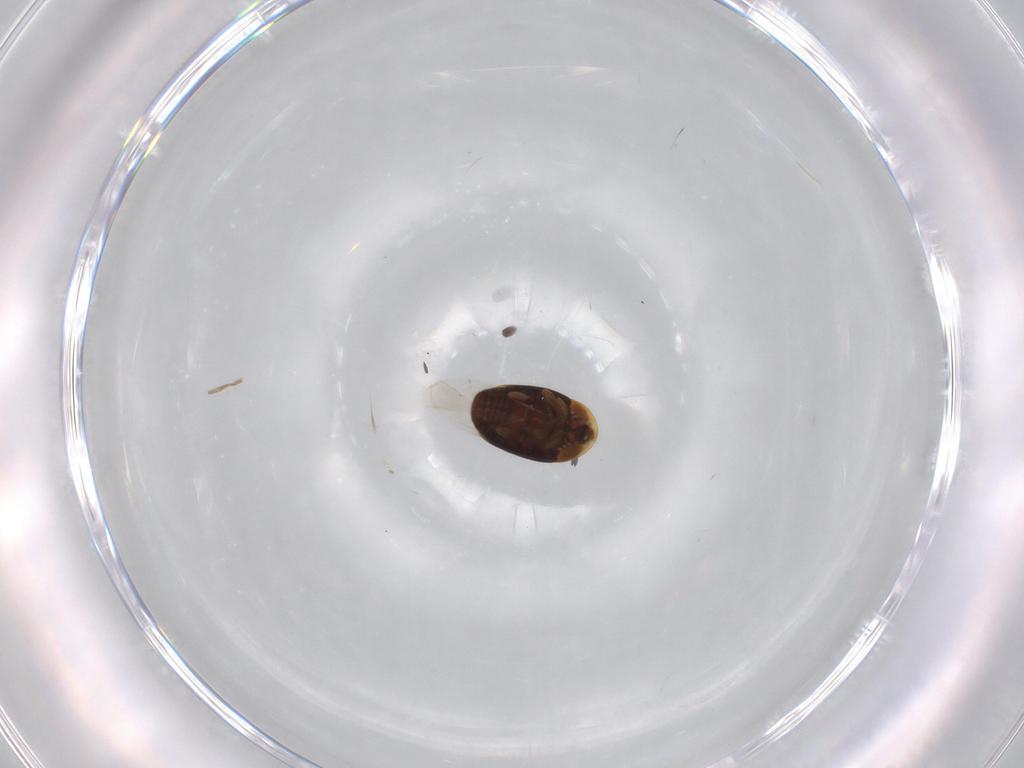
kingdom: Animalia
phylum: Arthropoda
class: Insecta
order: Coleoptera
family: Corylophidae
